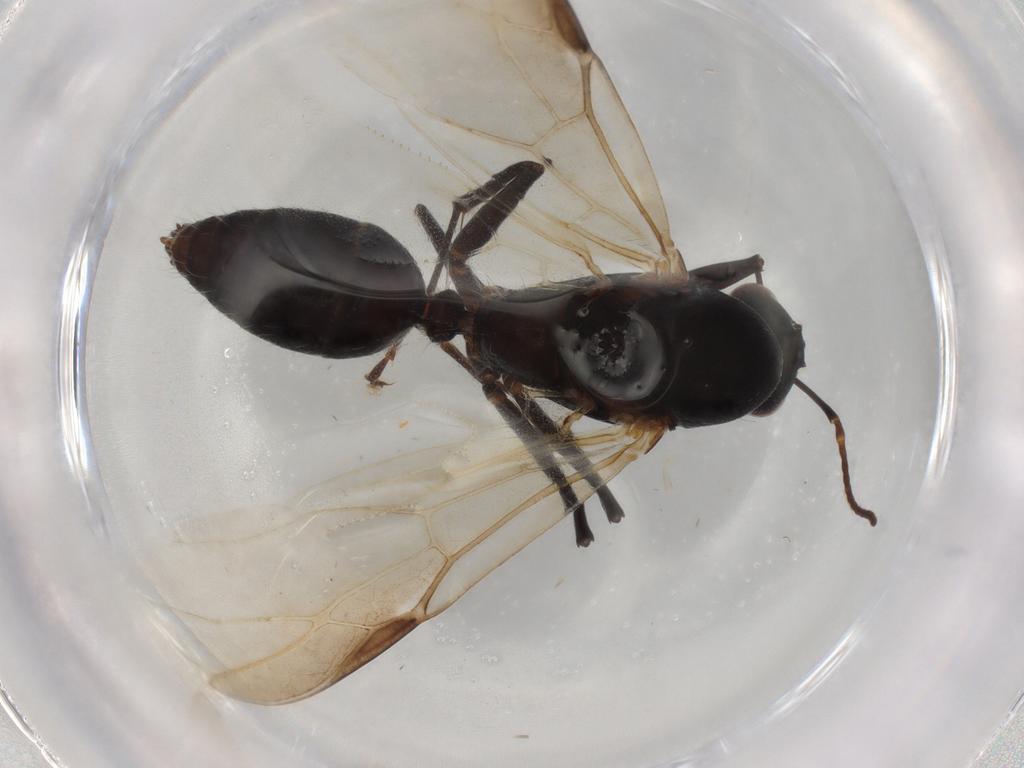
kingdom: Animalia
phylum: Arthropoda
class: Insecta
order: Hymenoptera
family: Formicidae
